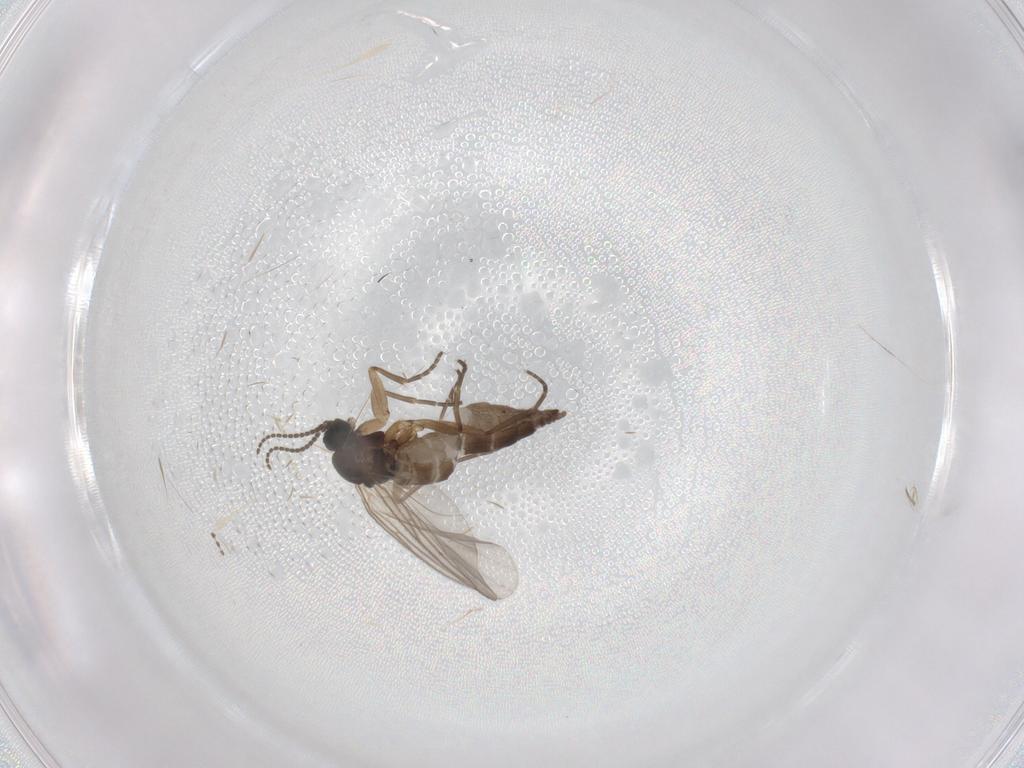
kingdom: Animalia
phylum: Arthropoda
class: Insecta
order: Diptera
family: Sciaridae
